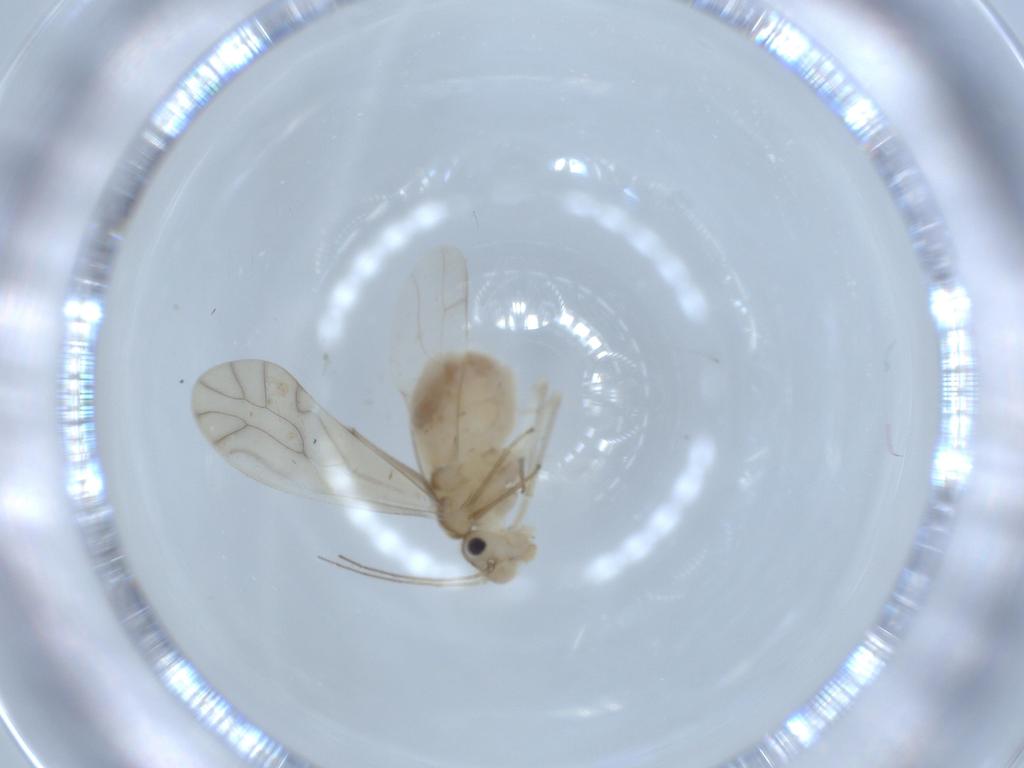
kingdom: Animalia
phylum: Arthropoda
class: Insecta
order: Psocodea
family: Caeciliusidae
